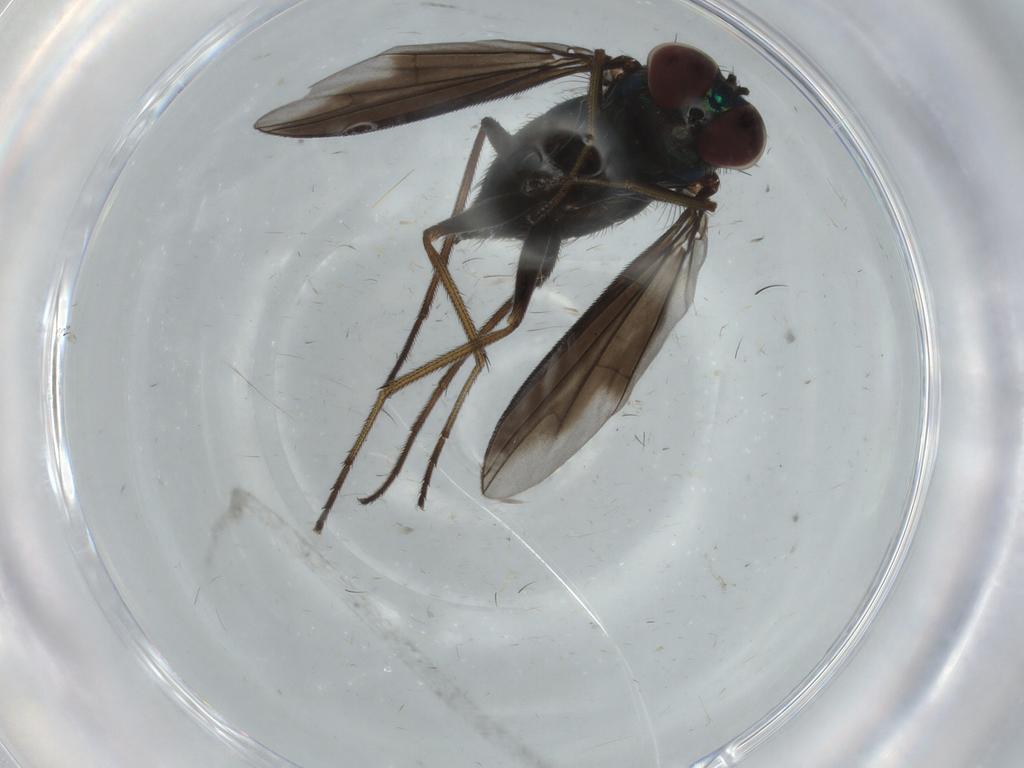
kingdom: Animalia
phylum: Arthropoda
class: Insecta
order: Diptera
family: Dolichopodidae
